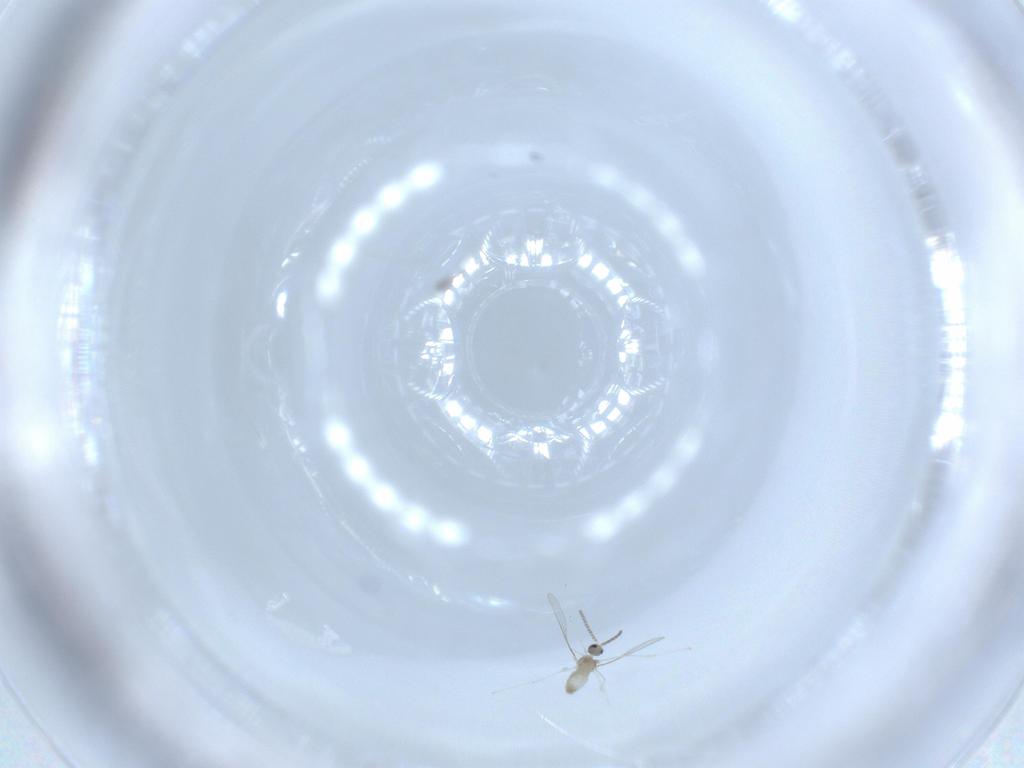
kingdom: Animalia
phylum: Arthropoda
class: Insecta
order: Diptera
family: Cecidomyiidae
